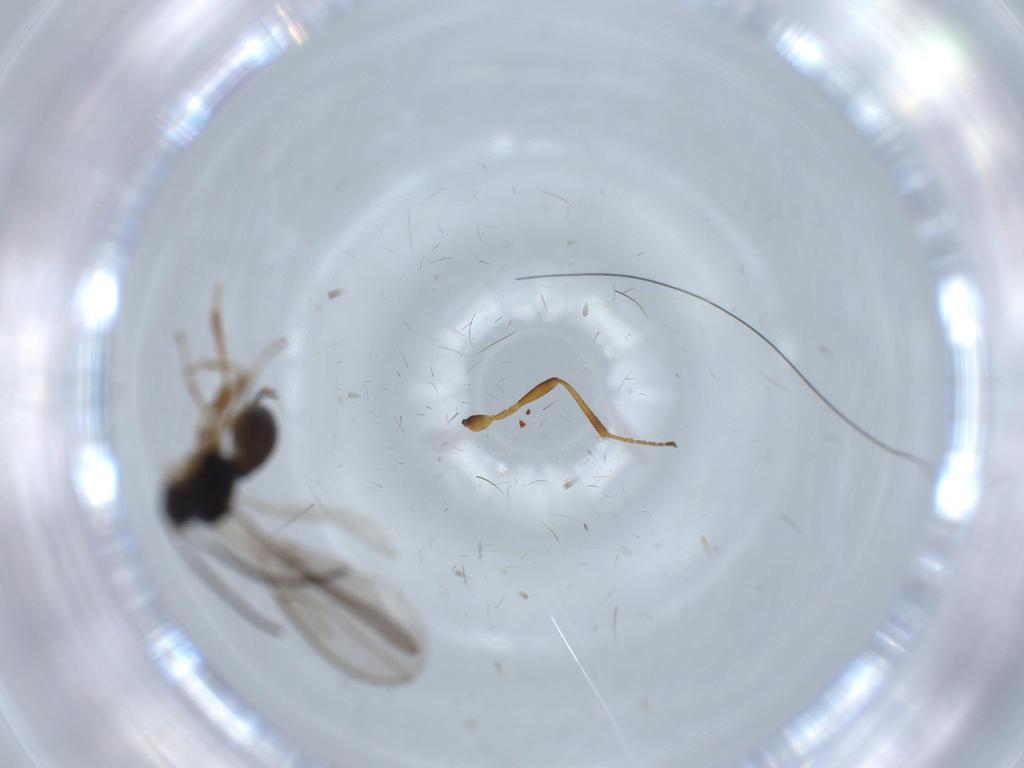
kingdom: Animalia
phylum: Arthropoda
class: Insecta
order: Hymenoptera
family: Braconidae
